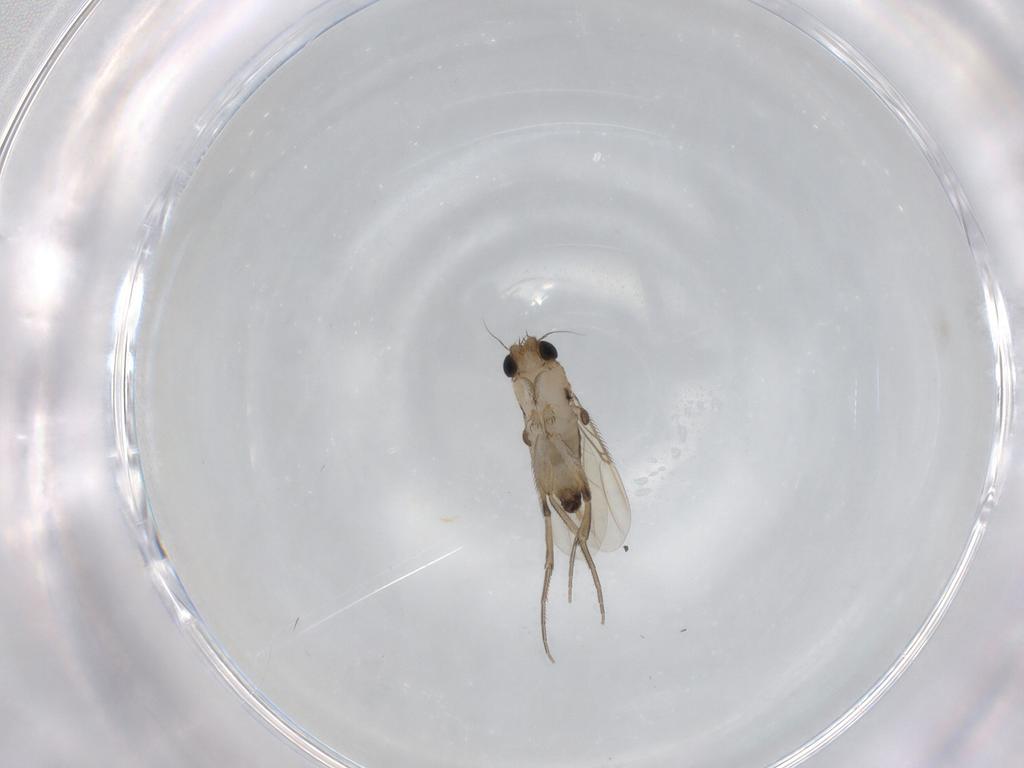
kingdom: Animalia
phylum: Arthropoda
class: Insecta
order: Diptera
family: Phoridae
